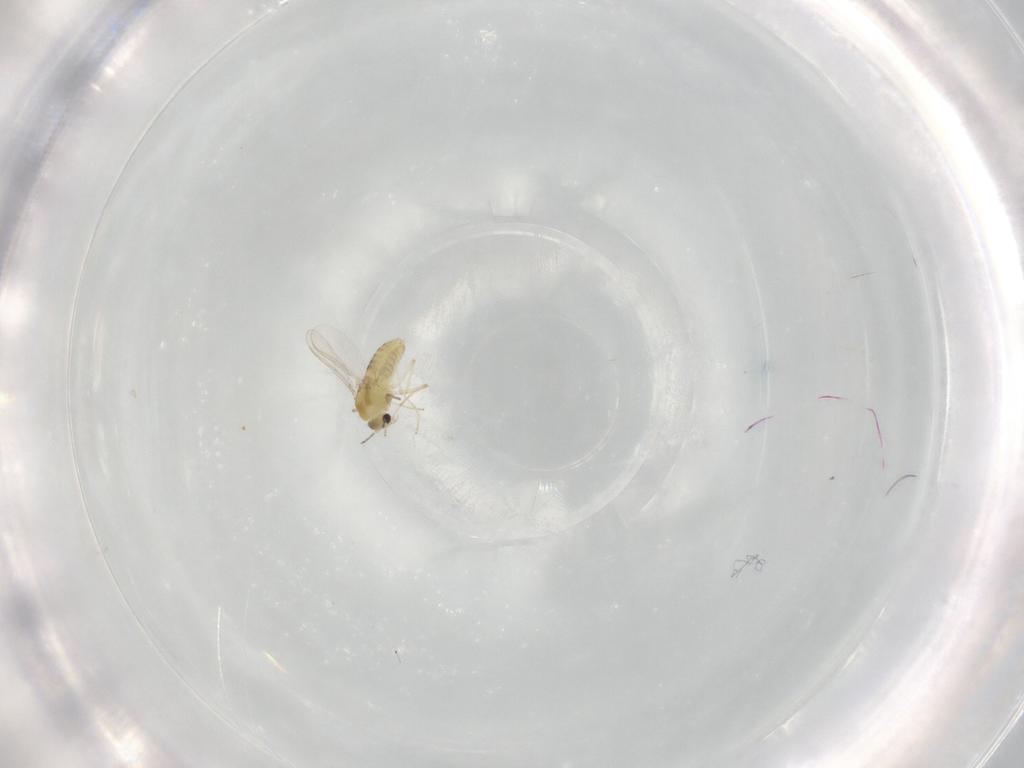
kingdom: Animalia
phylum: Arthropoda
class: Insecta
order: Diptera
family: Chironomidae
